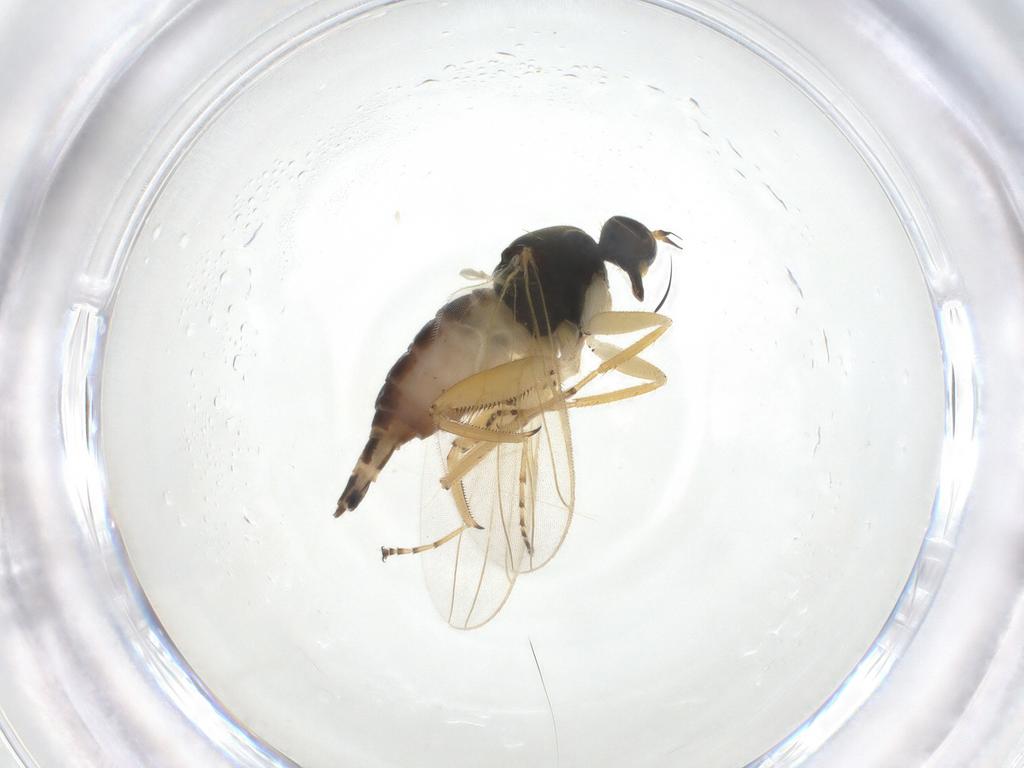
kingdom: Animalia
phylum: Arthropoda
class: Insecta
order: Diptera
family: Hybotidae
